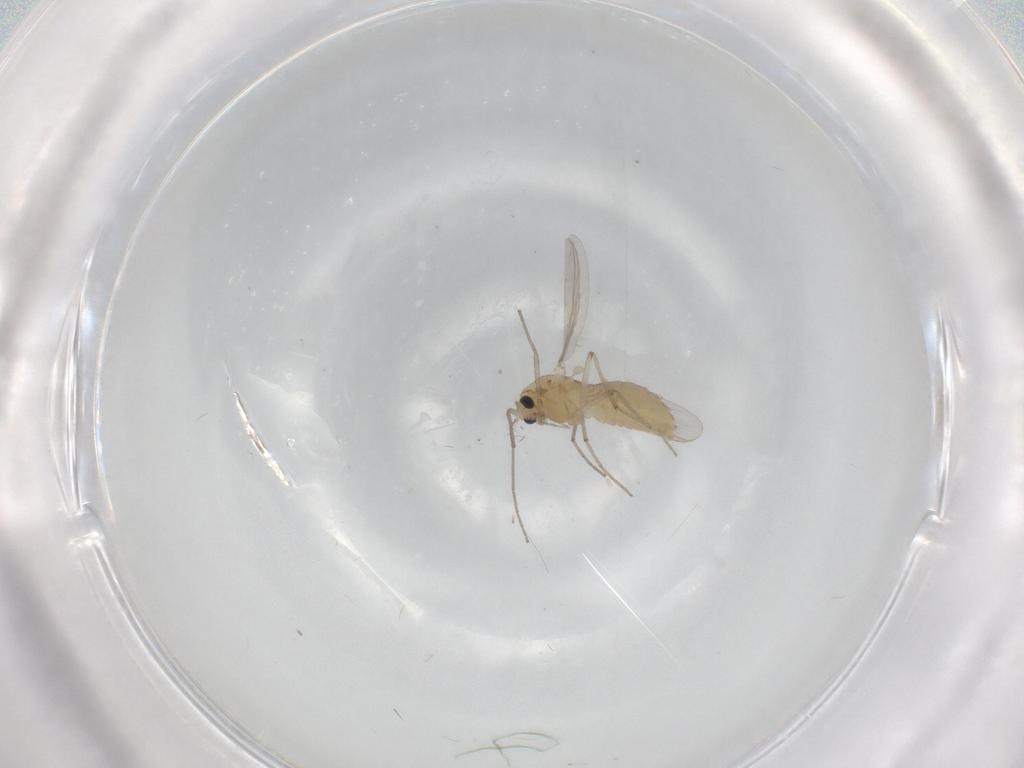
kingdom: Animalia
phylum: Arthropoda
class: Insecta
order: Diptera
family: Chironomidae
